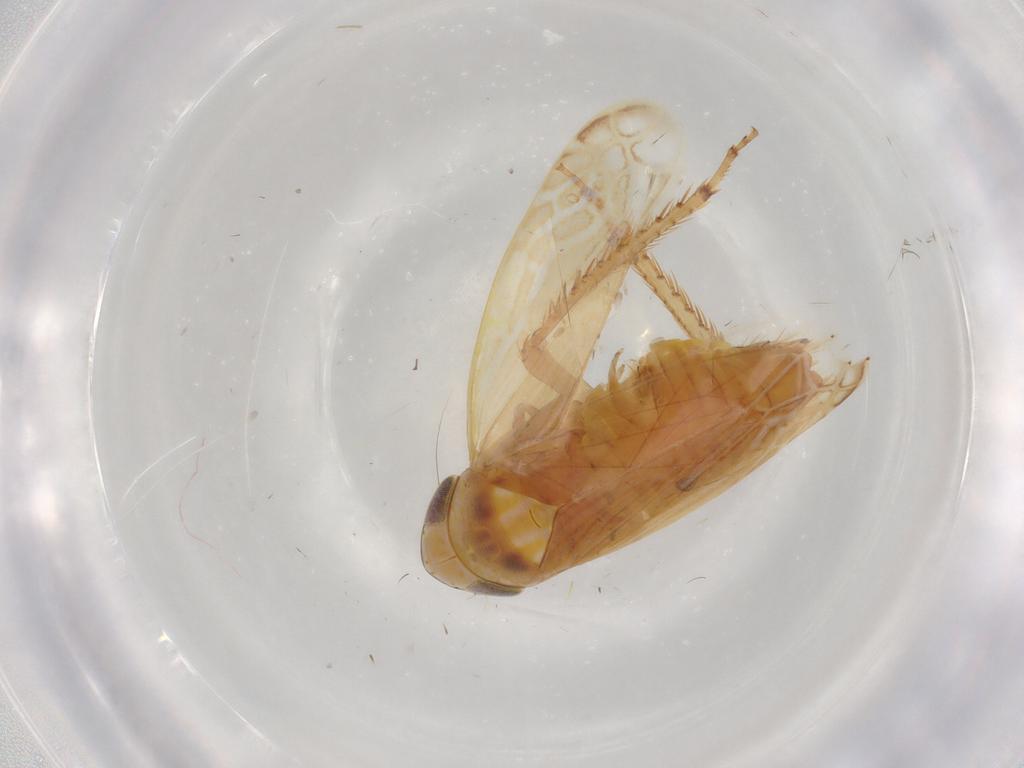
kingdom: Animalia
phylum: Arthropoda
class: Insecta
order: Hemiptera
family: Cicadellidae
